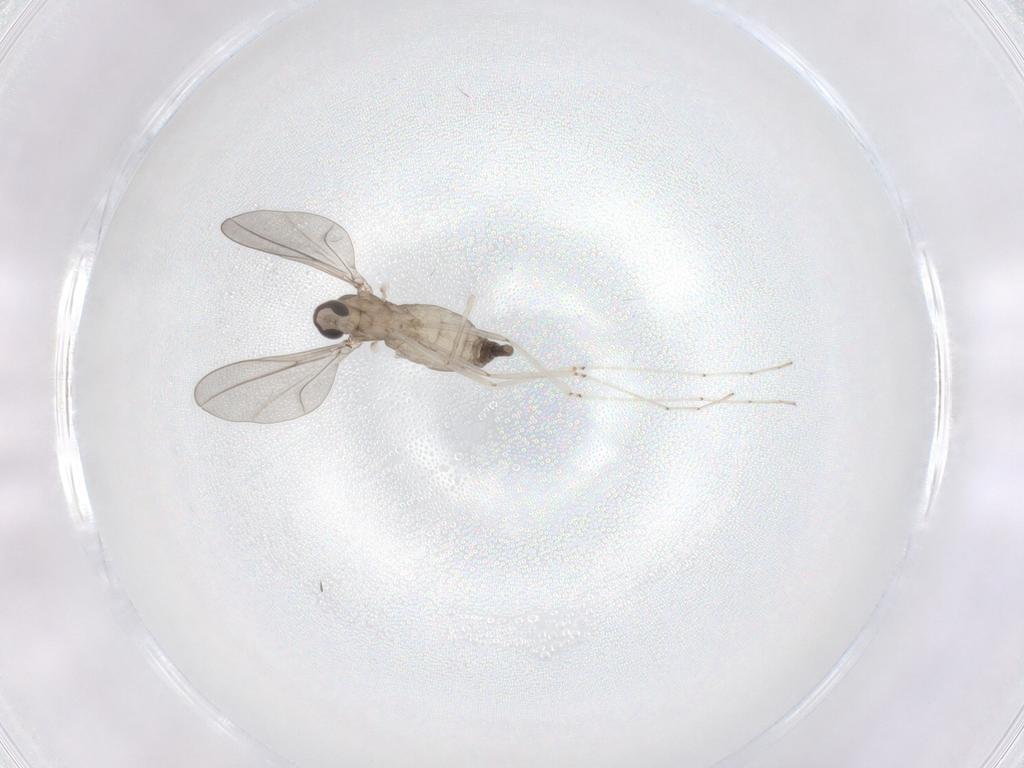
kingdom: Animalia
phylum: Arthropoda
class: Insecta
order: Diptera
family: Cecidomyiidae
